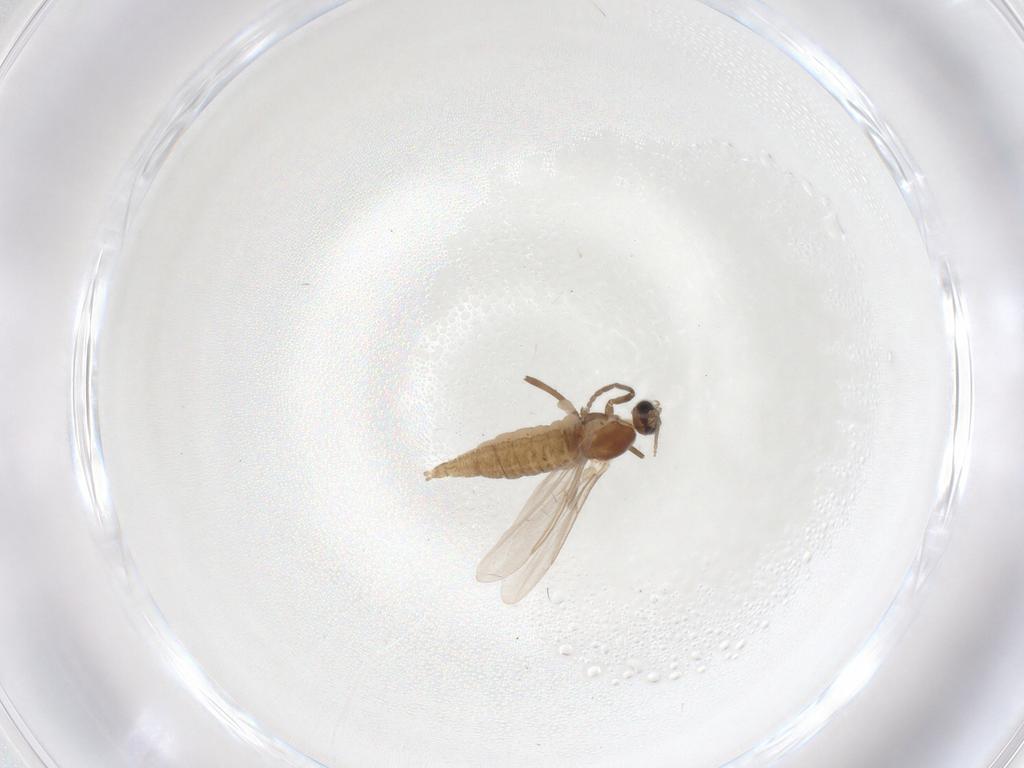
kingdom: Animalia
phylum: Arthropoda
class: Insecta
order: Diptera
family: Cecidomyiidae
